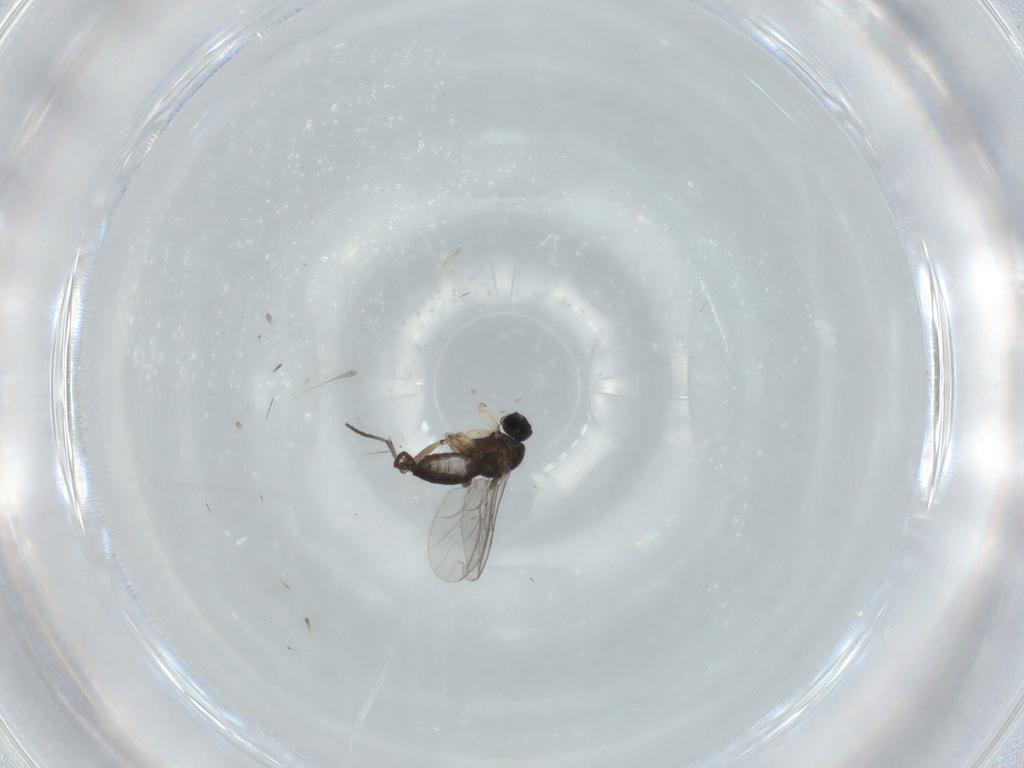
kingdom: Animalia
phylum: Arthropoda
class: Insecta
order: Diptera
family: Sciaridae
